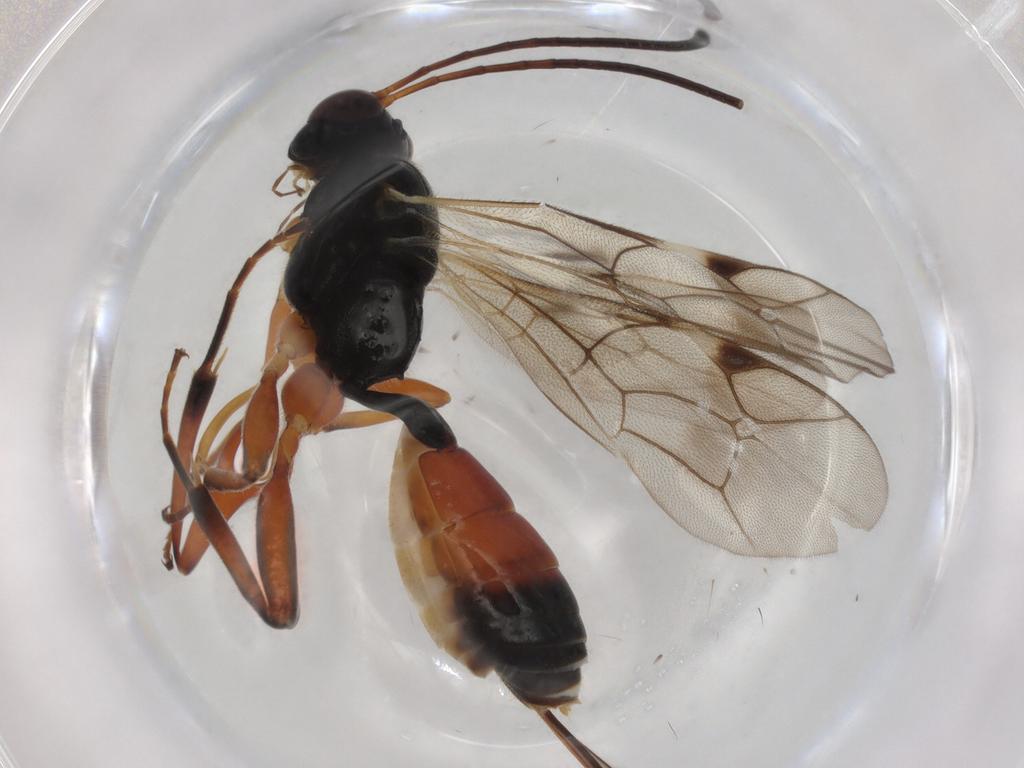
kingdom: Animalia
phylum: Arthropoda
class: Insecta
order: Hymenoptera
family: Ichneumonidae
